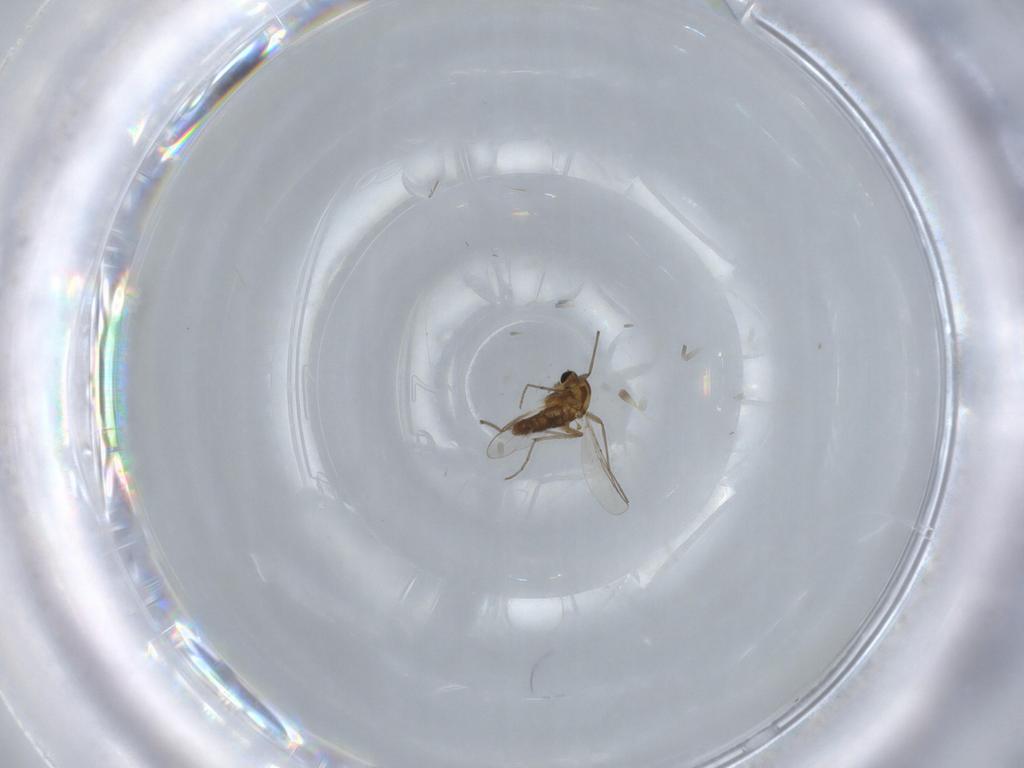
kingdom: Animalia
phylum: Arthropoda
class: Insecta
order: Diptera
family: Chironomidae
